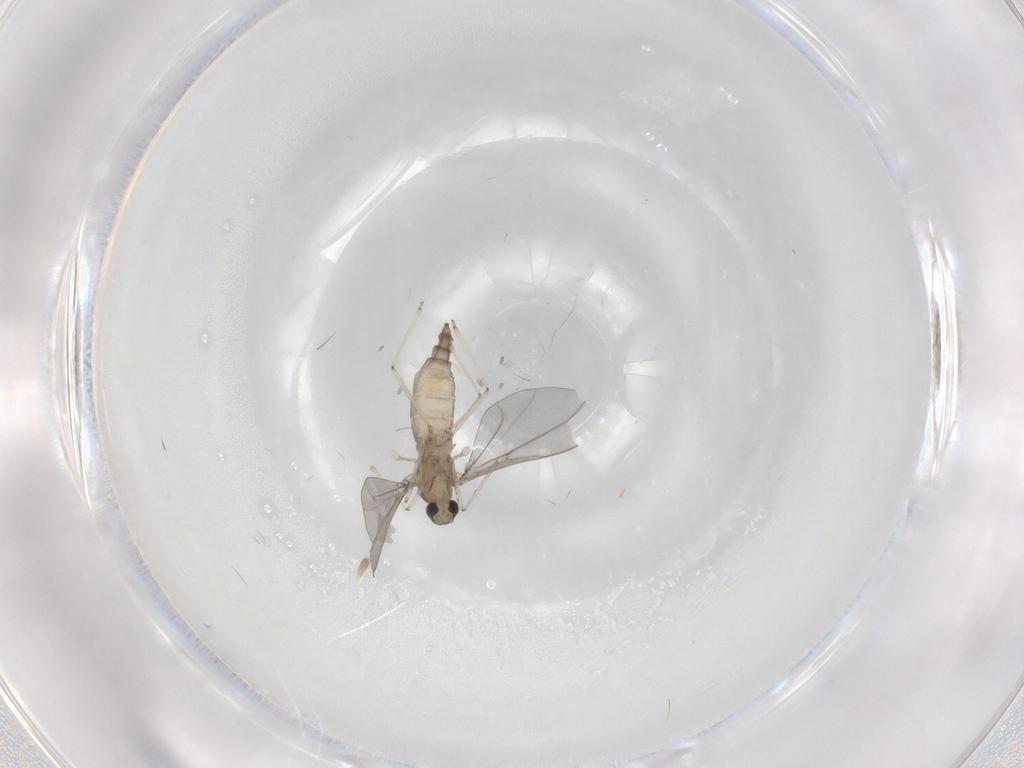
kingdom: Animalia
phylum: Arthropoda
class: Insecta
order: Diptera
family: Cecidomyiidae
